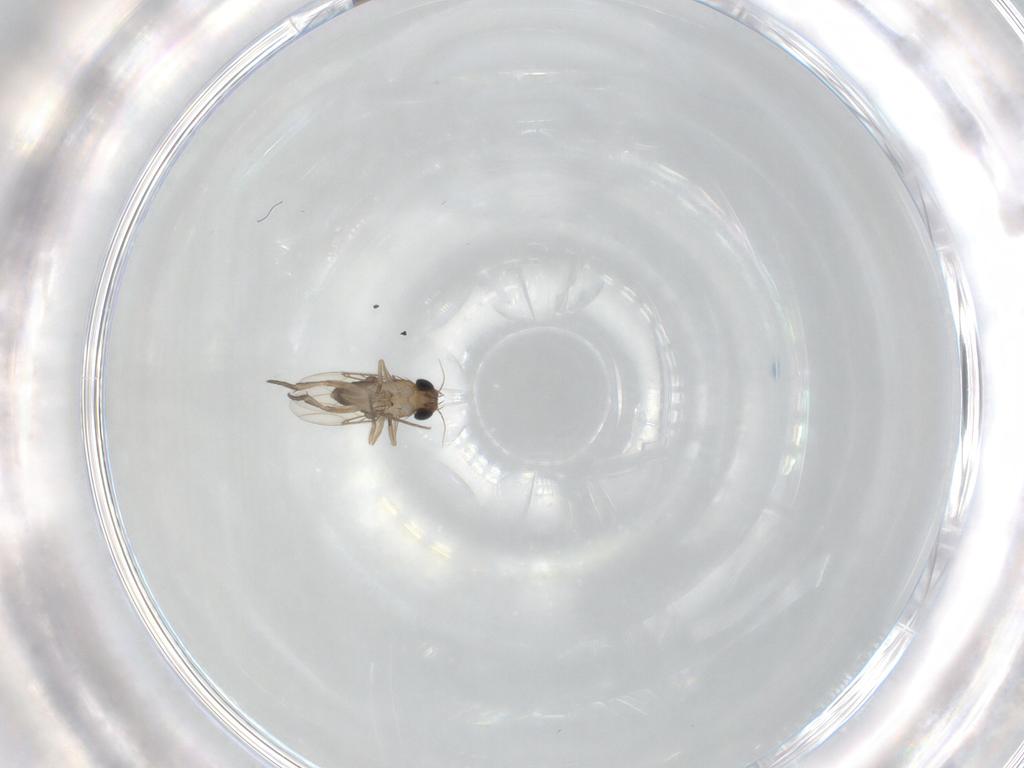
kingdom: Animalia
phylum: Arthropoda
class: Insecta
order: Diptera
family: Phoridae
